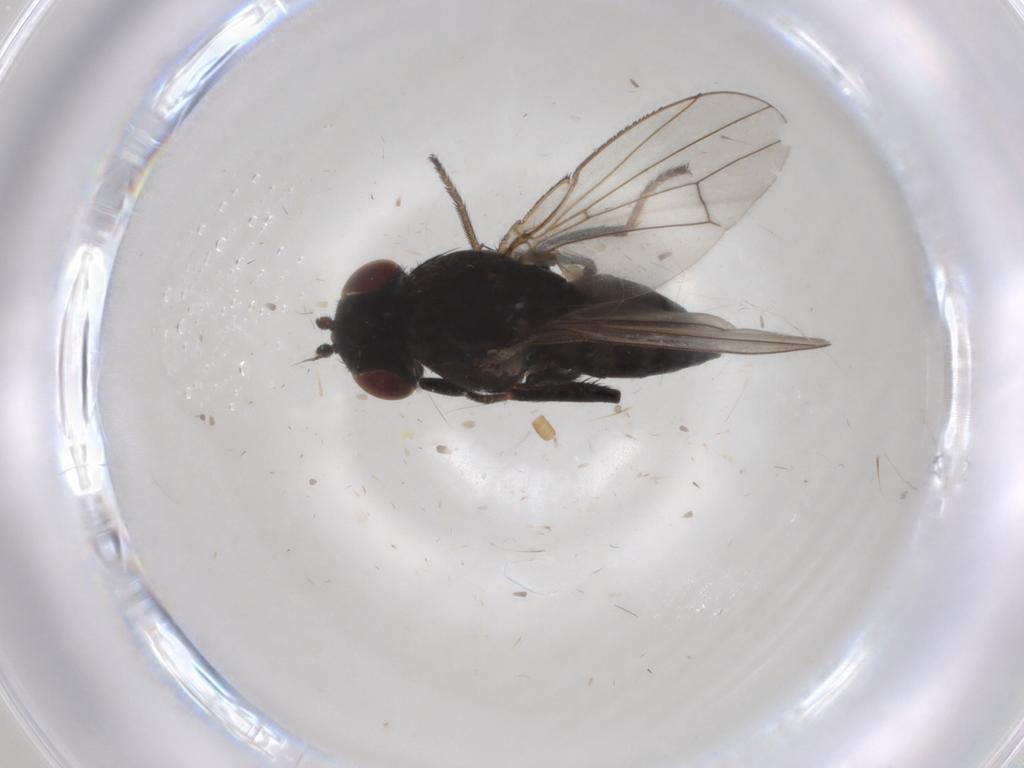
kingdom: Animalia
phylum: Arthropoda
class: Insecta
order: Diptera
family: Ephydridae
